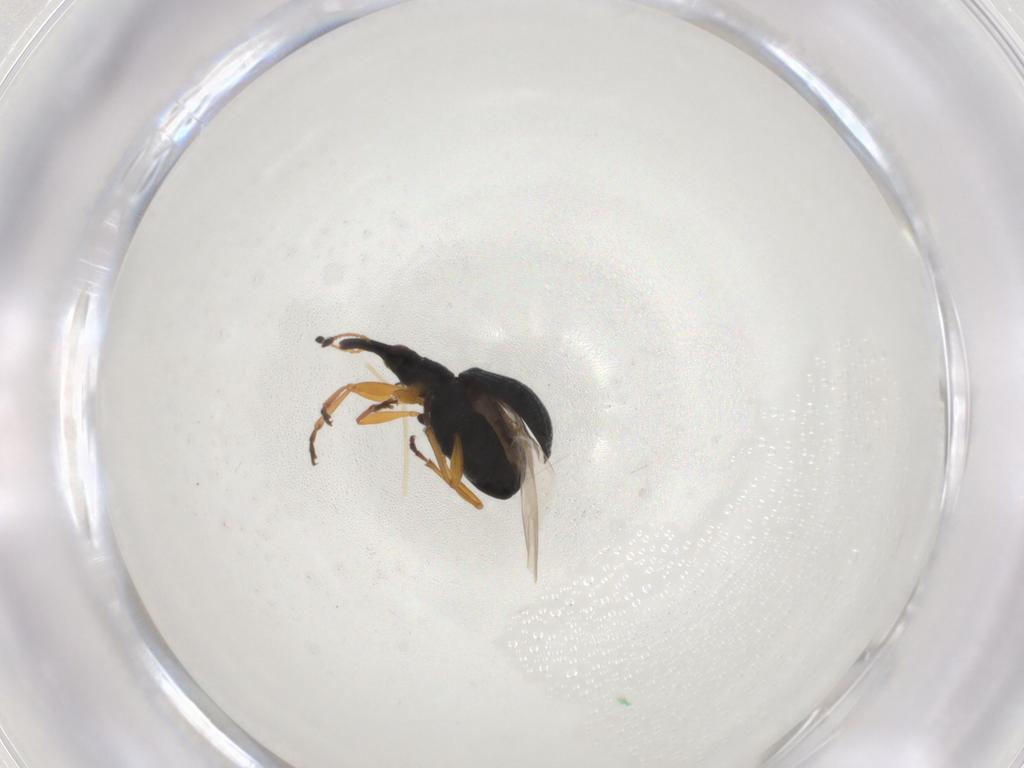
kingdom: Animalia
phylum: Arthropoda
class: Insecta
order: Coleoptera
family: Brentidae
